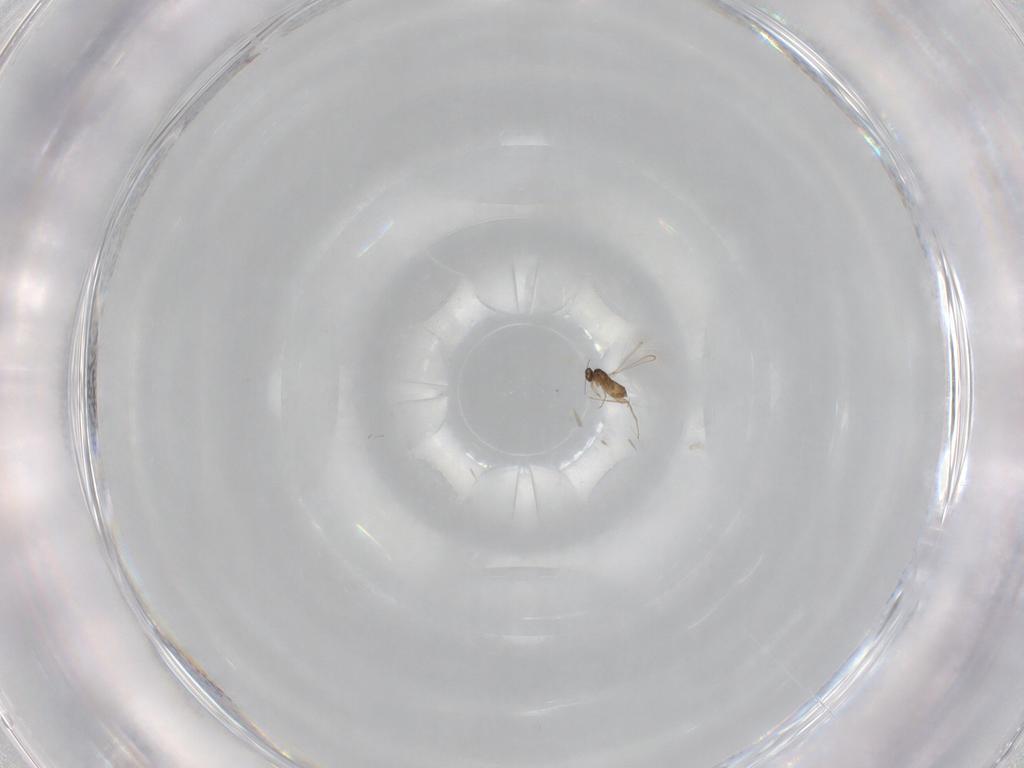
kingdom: Animalia
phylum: Arthropoda
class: Insecta
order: Hymenoptera
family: Mymaridae
